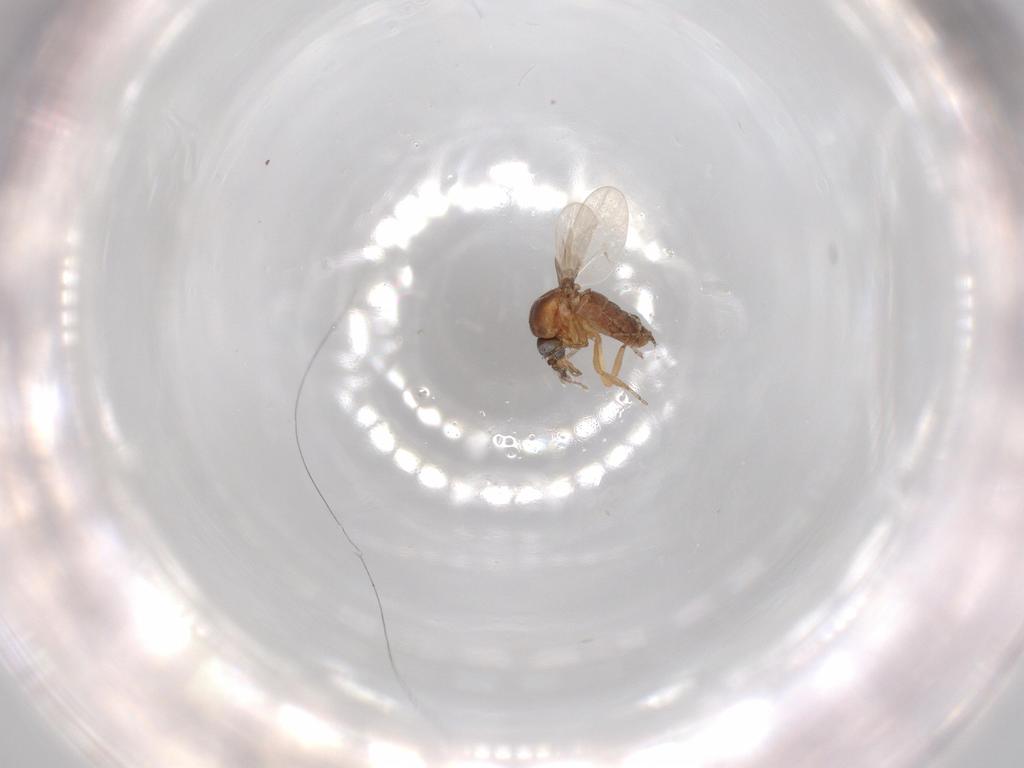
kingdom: Animalia
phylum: Arthropoda
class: Insecta
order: Diptera
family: Ceratopogonidae
